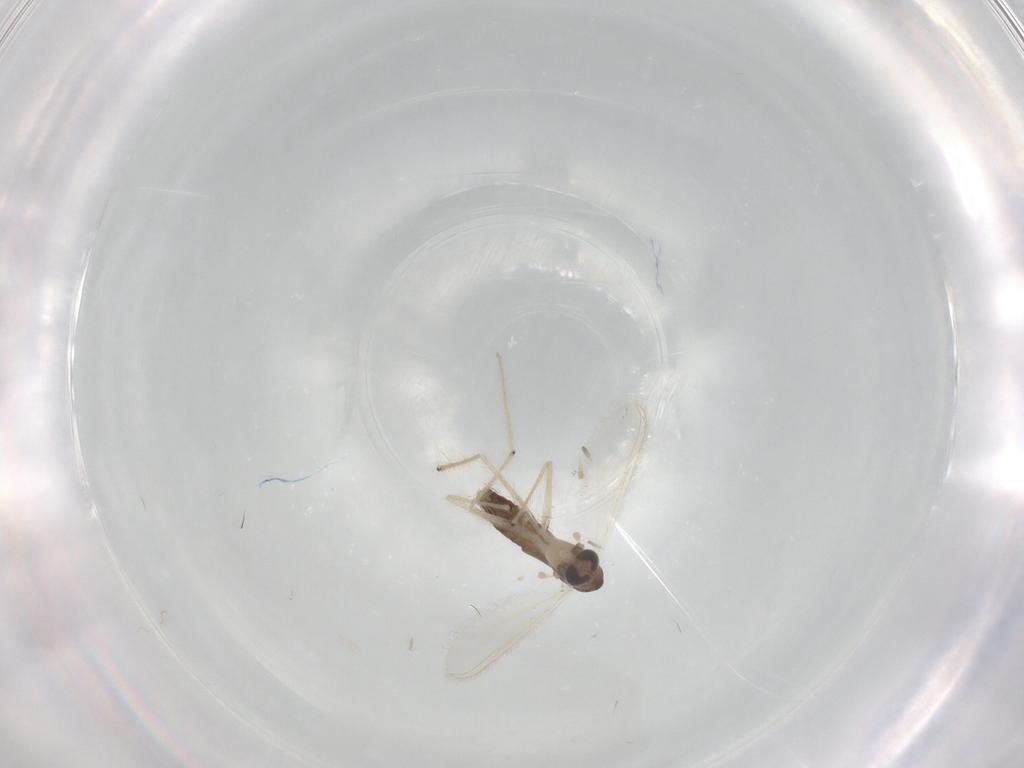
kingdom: Animalia
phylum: Arthropoda
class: Insecta
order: Diptera
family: Chironomidae
